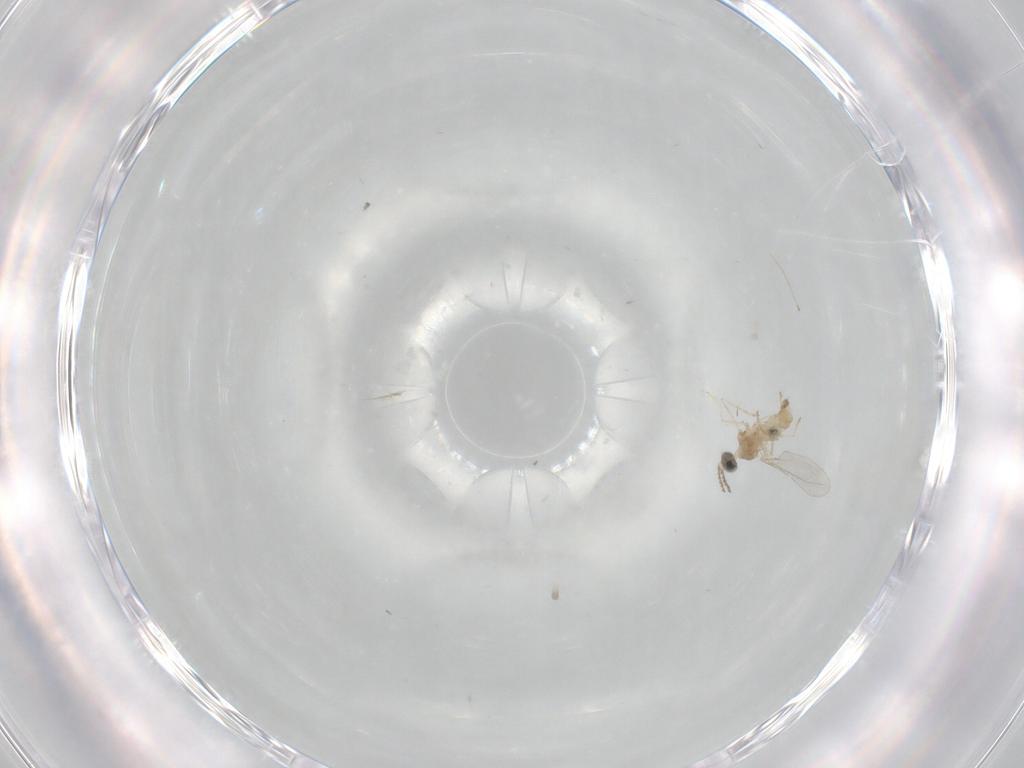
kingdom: Animalia
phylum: Arthropoda
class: Insecta
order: Diptera
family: Cecidomyiidae
